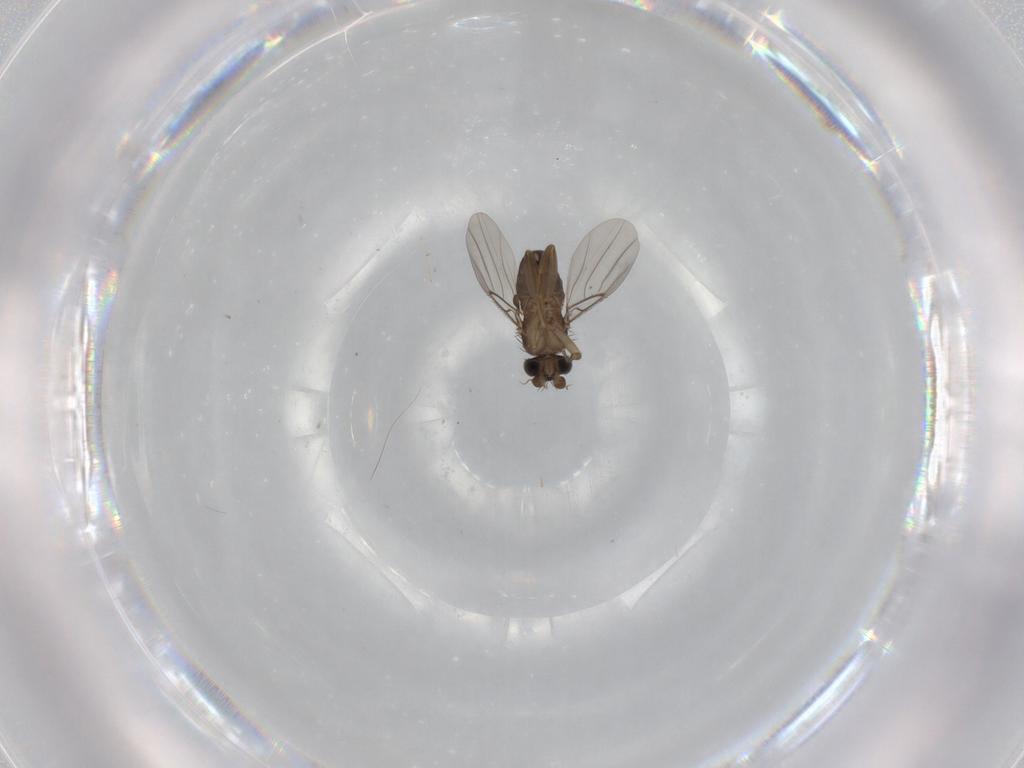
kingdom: Animalia
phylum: Arthropoda
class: Insecta
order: Diptera
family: Phoridae
